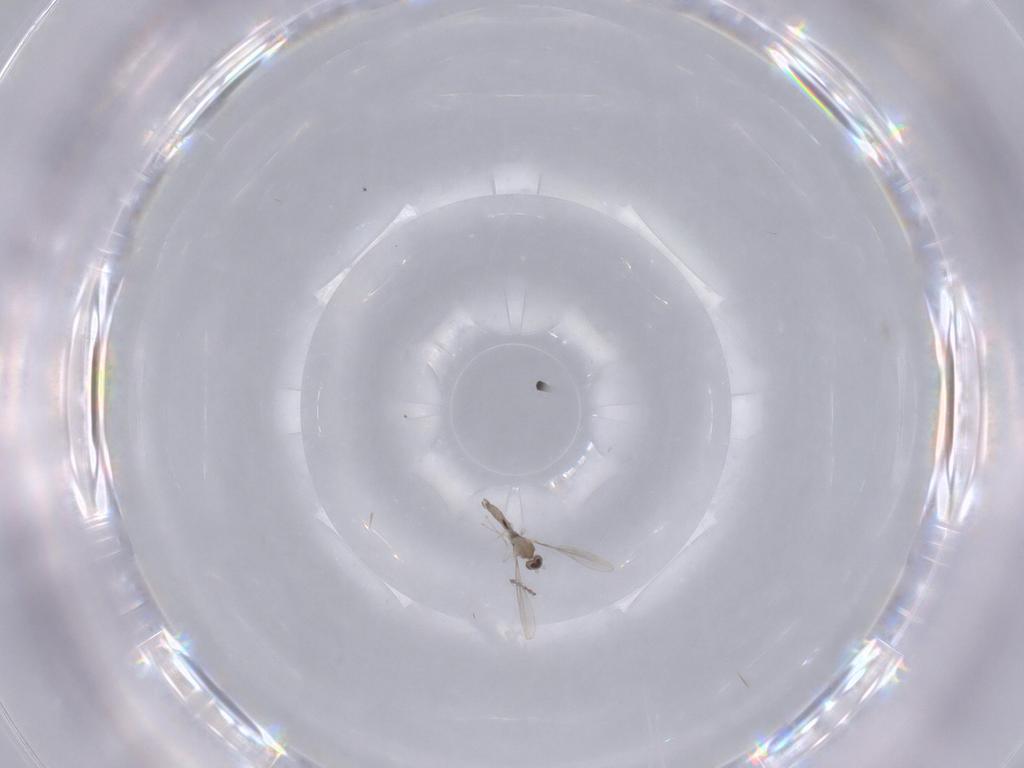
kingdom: Animalia
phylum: Arthropoda
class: Insecta
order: Diptera
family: Cecidomyiidae
